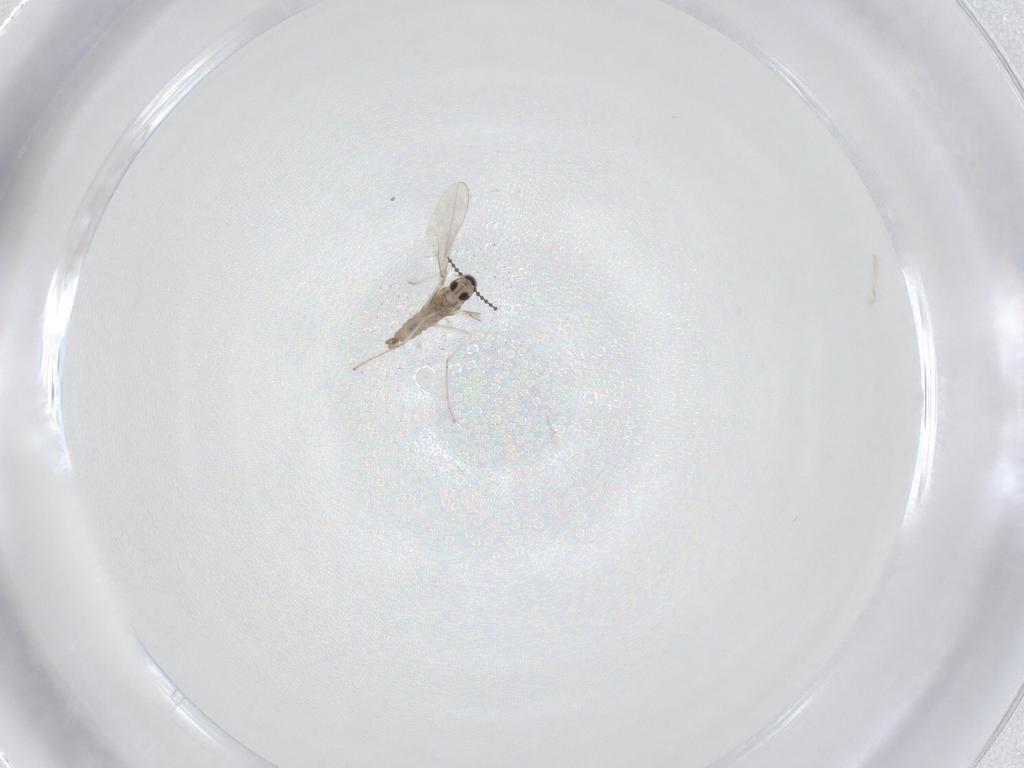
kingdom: Animalia
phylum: Arthropoda
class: Insecta
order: Diptera
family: Cecidomyiidae
